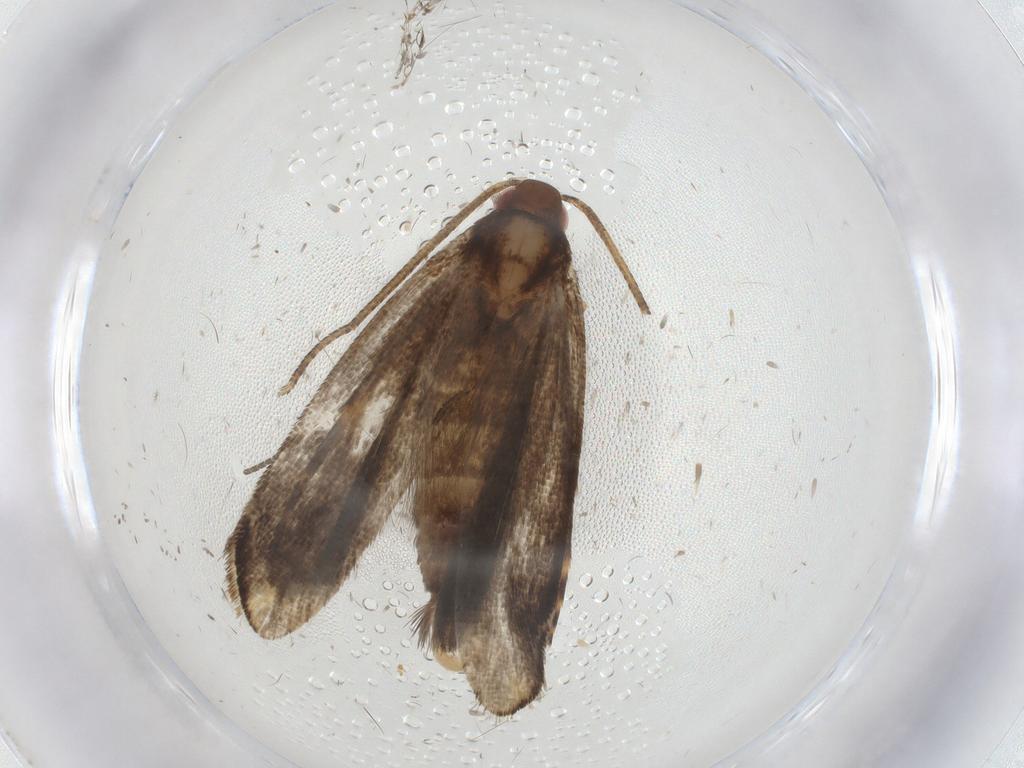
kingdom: Animalia
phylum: Arthropoda
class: Insecta
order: Lepidoptera
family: Gelechiidae
